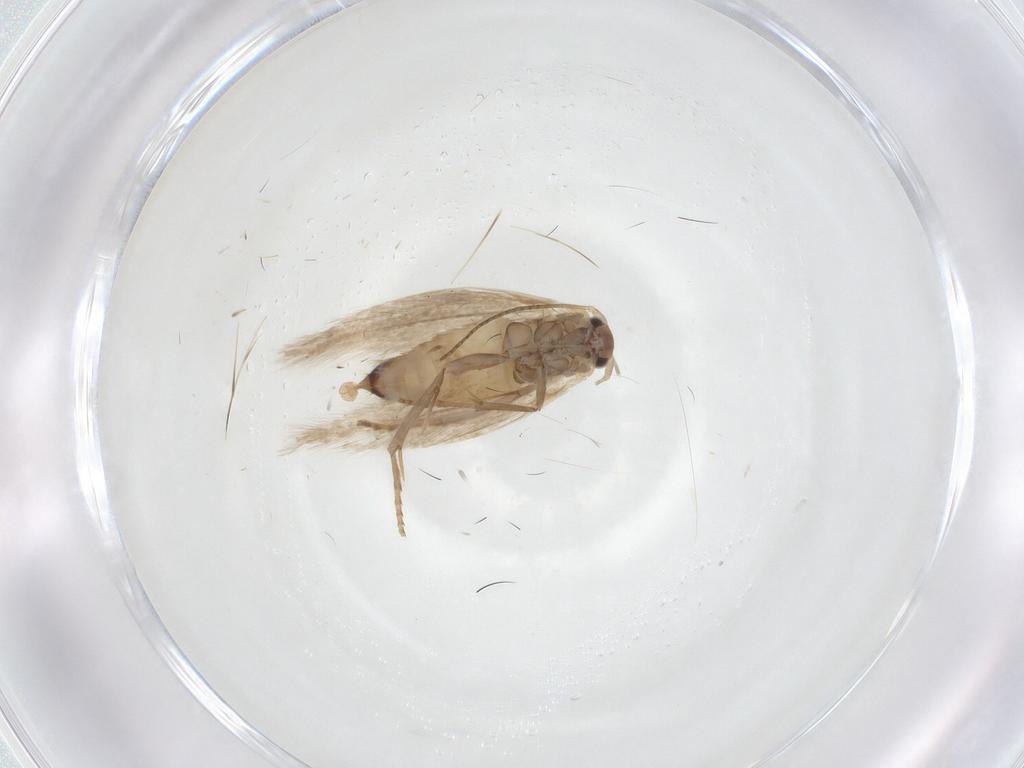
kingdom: Animalia
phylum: Arthropoda
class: Insecta
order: Lepidoptera
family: Bucculatricidae
